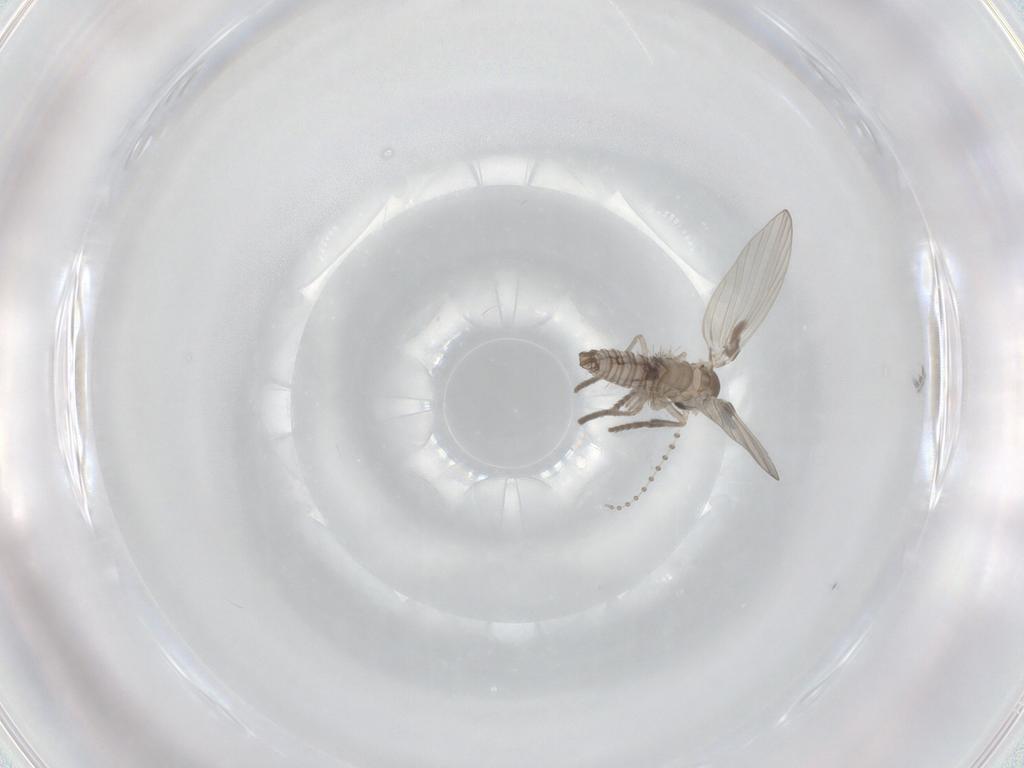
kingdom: Animalia
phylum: Arthropoda
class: Insecta
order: Diptera
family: Psychodidae
